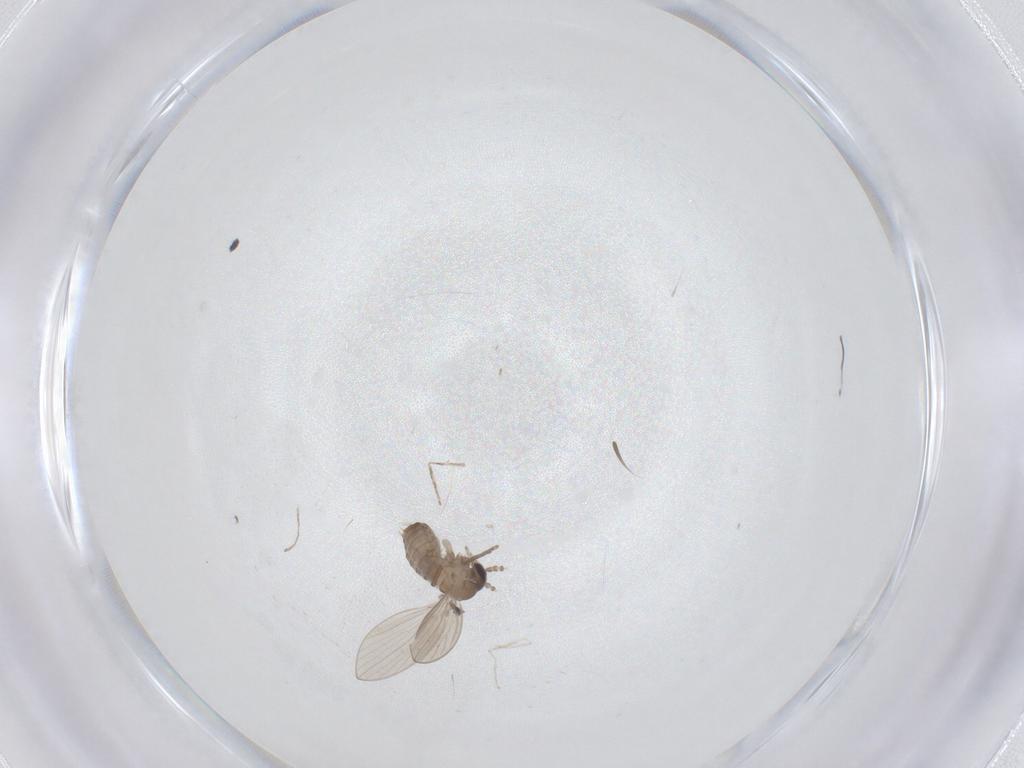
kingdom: Animalia
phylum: Arthropoda
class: Insecta
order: Diptera
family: Psychodidae
